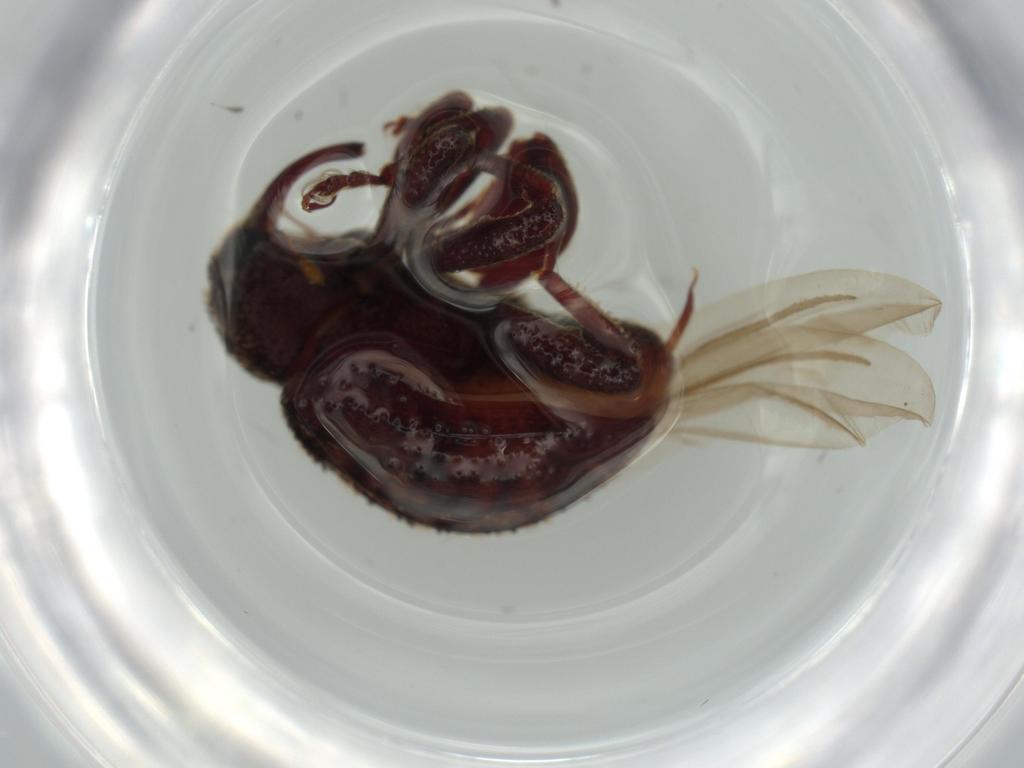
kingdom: Animalia
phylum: Arthropoda
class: Insecta
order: Coleoptera
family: Curculionidae
